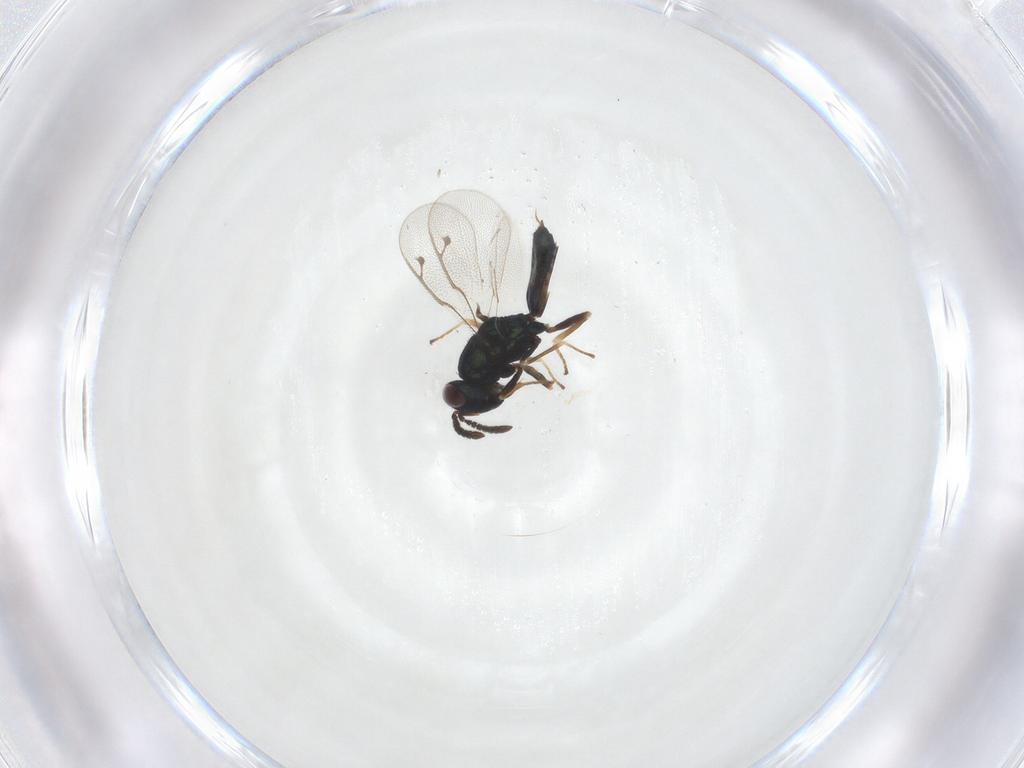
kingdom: Animalia
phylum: Arthropoda
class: Insecta
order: Hymenoptera
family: Pteromalidae
